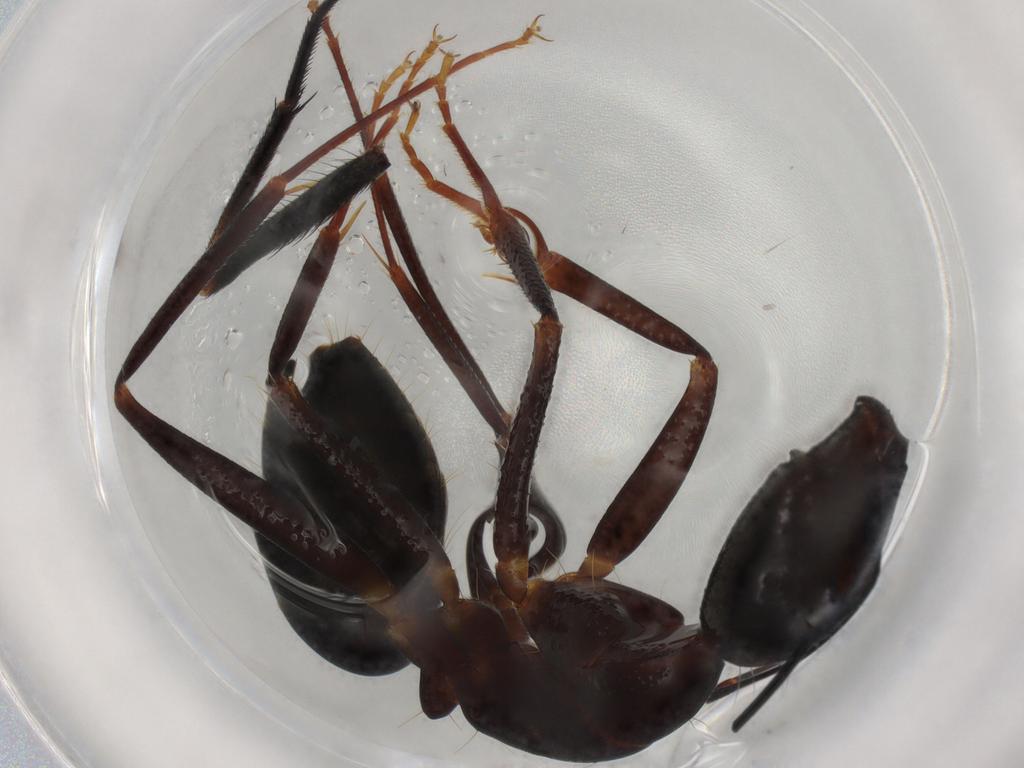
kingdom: Animalia
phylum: Arthropoda
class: Insecta
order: Hymenoptera
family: Formicidae
